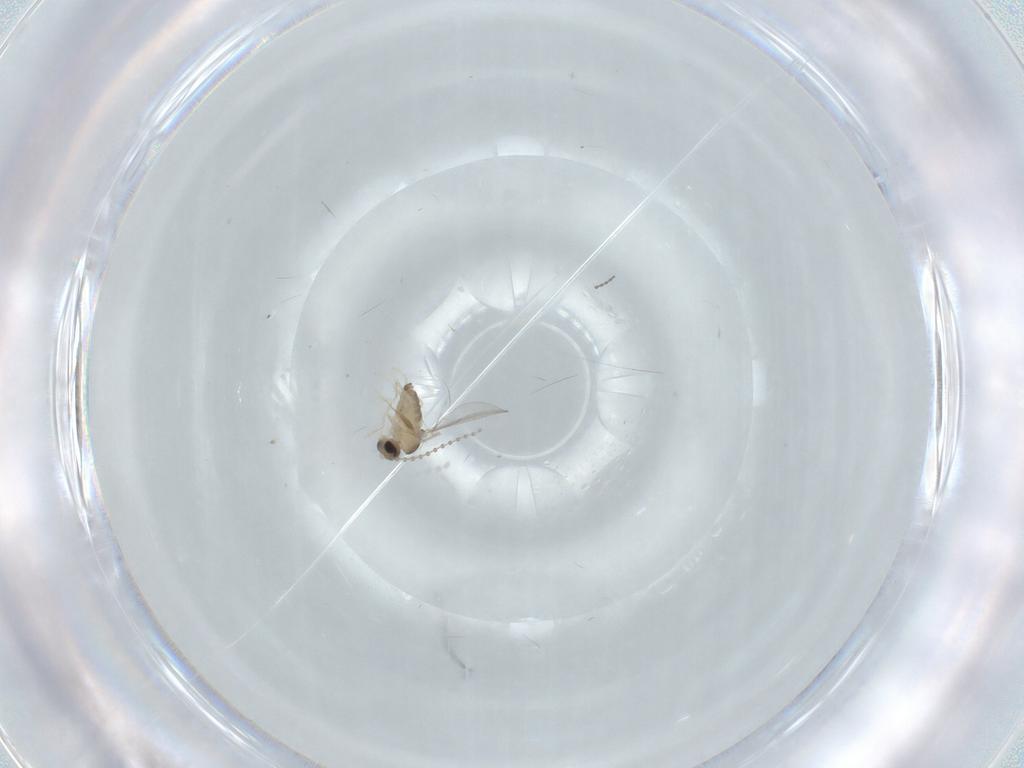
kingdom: Animalia
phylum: Arthropoda
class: Insecta
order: Diptera
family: Cecidomyiidae
